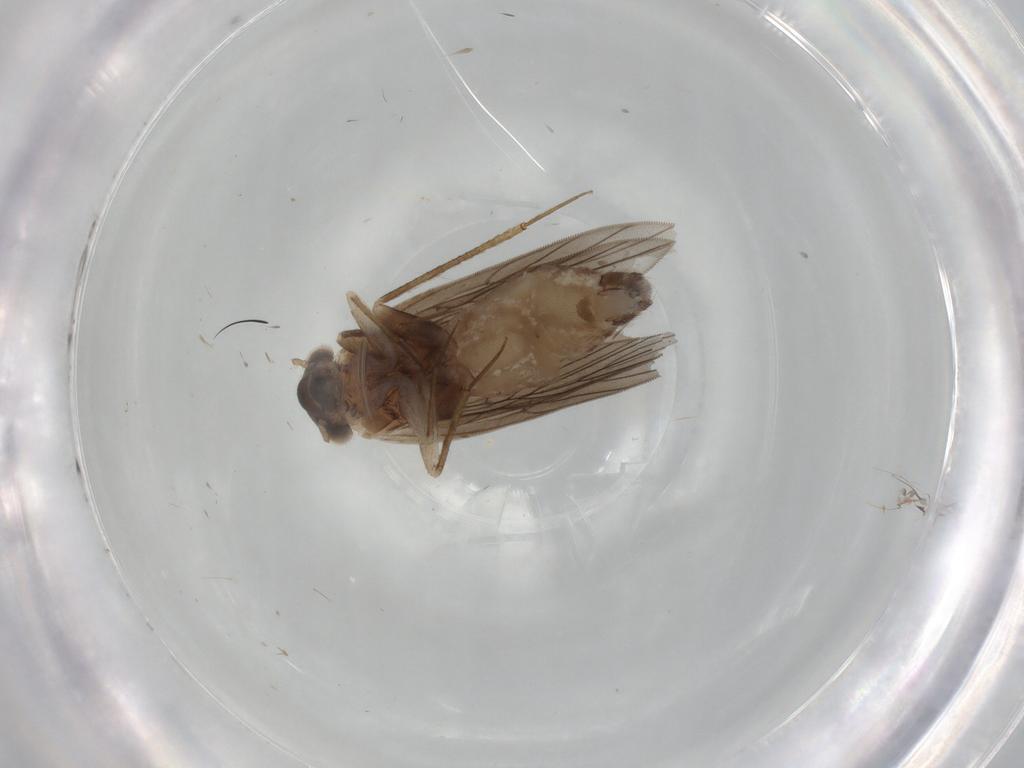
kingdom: Animalia
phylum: Arthropoda
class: Insecta
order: Psocodea
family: Lepidopsocidae
